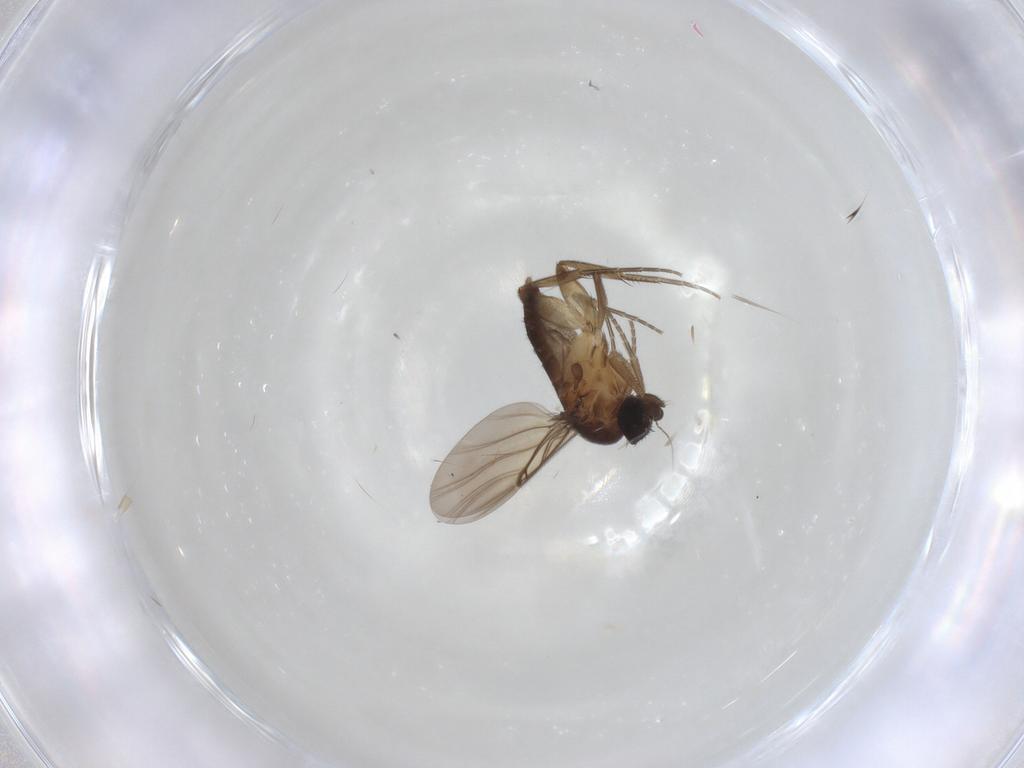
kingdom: Animalia
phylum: Arthropoda
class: Insecta
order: Diptera
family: Phoridae
